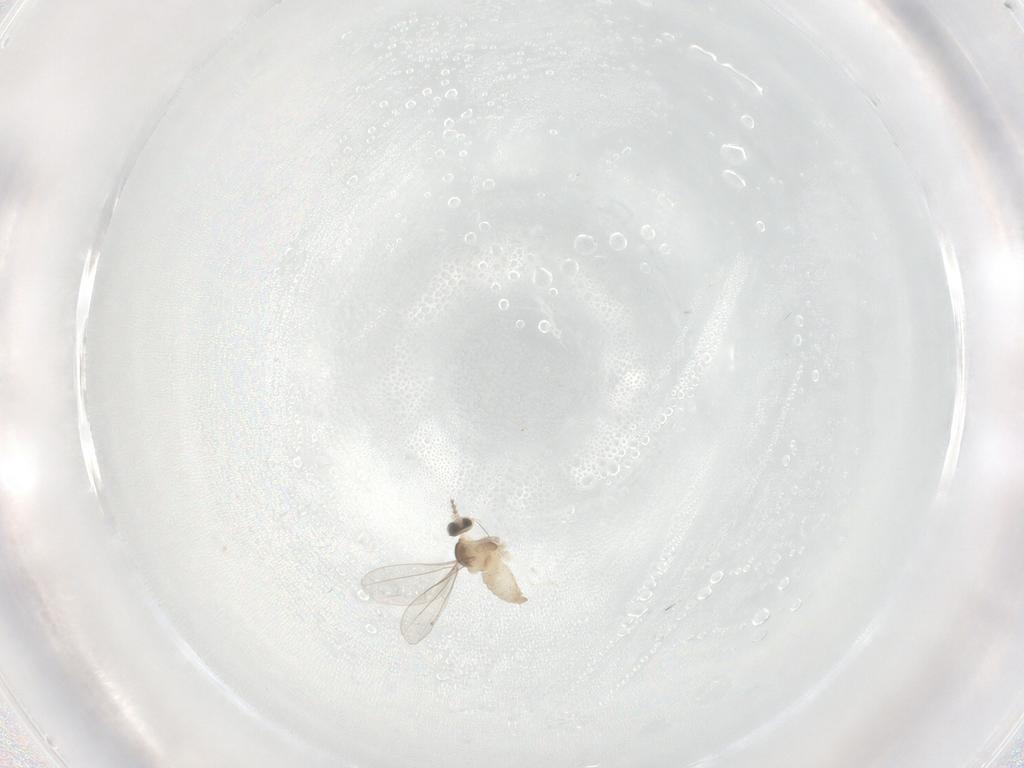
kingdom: Animalia
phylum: Arthropoda
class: Insecta
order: Diptera
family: Cecidomyiidae
